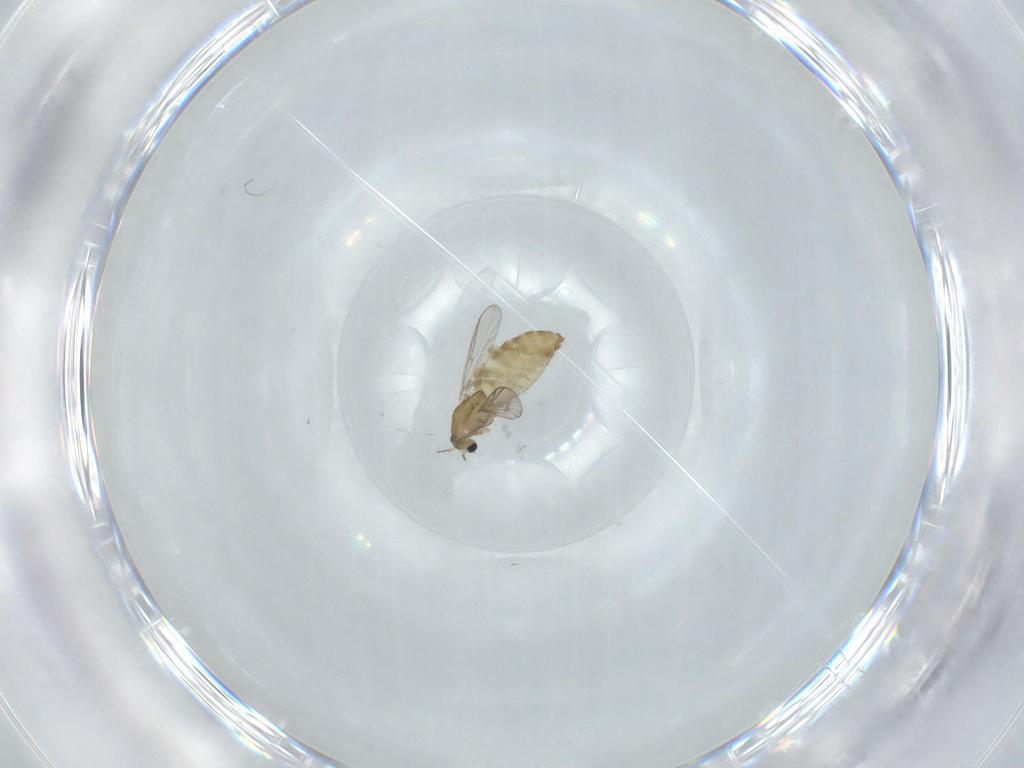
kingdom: Animalia
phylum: Arthropoda
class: Insecta
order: Diptera
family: Chironomidae
